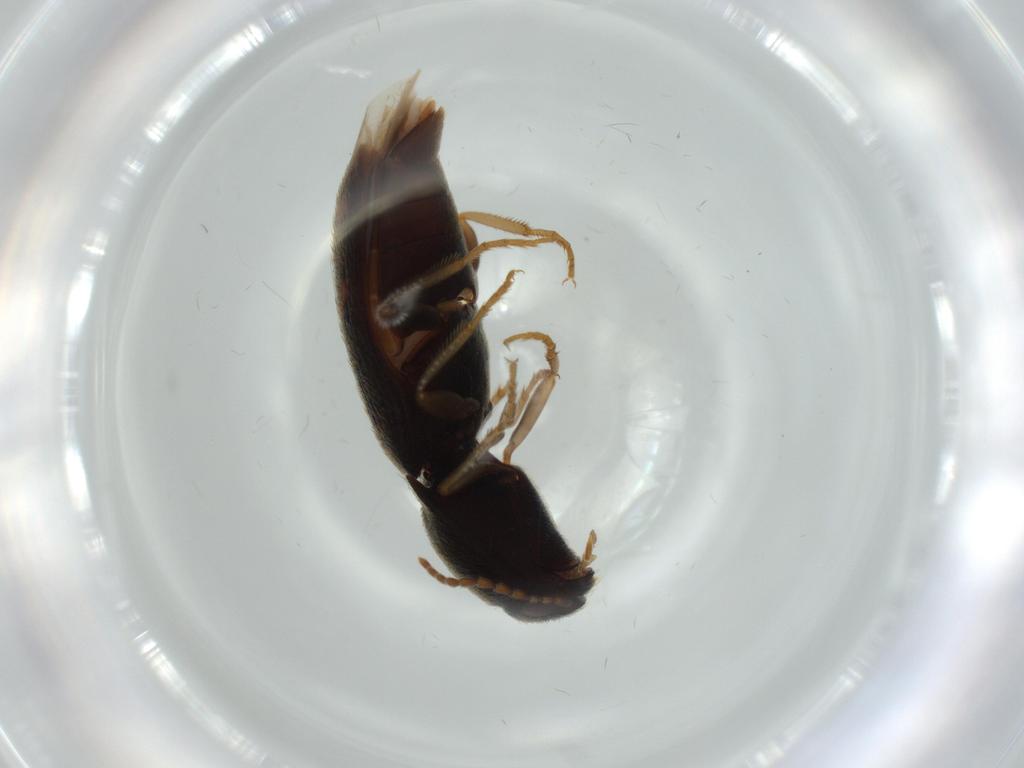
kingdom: Animalia
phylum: Arthropoda
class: Insecta
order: Coleoptera
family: Elateridae
